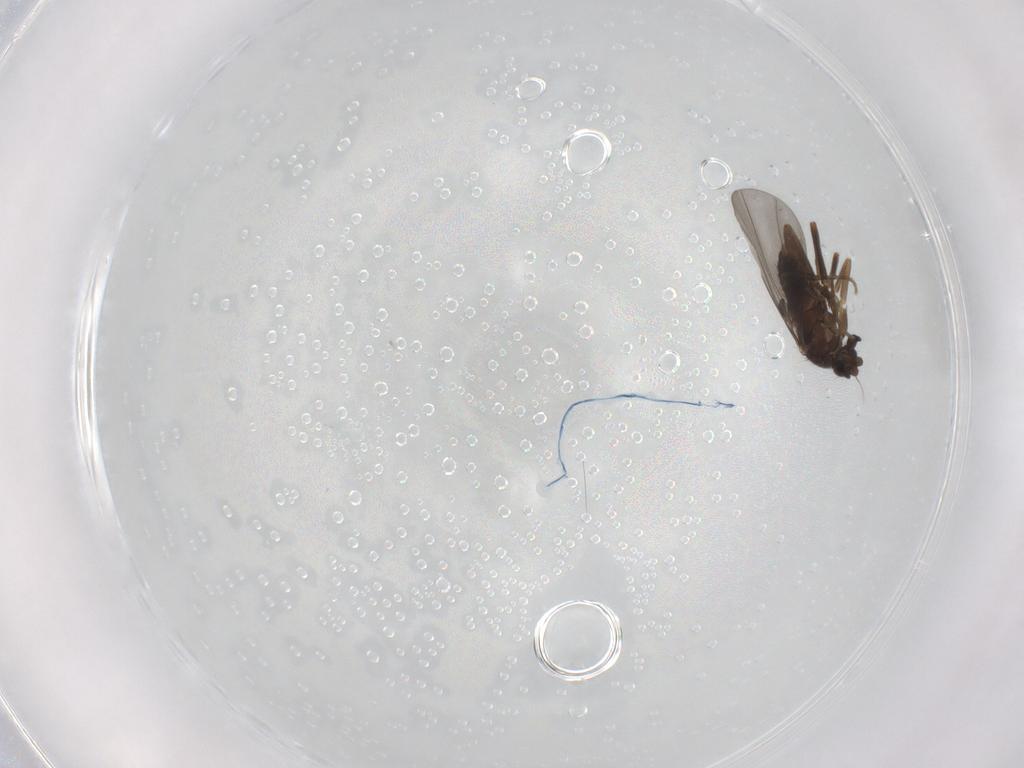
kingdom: Animalia
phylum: Arthropoda
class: Insecta
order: Diptera
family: Phoridae
